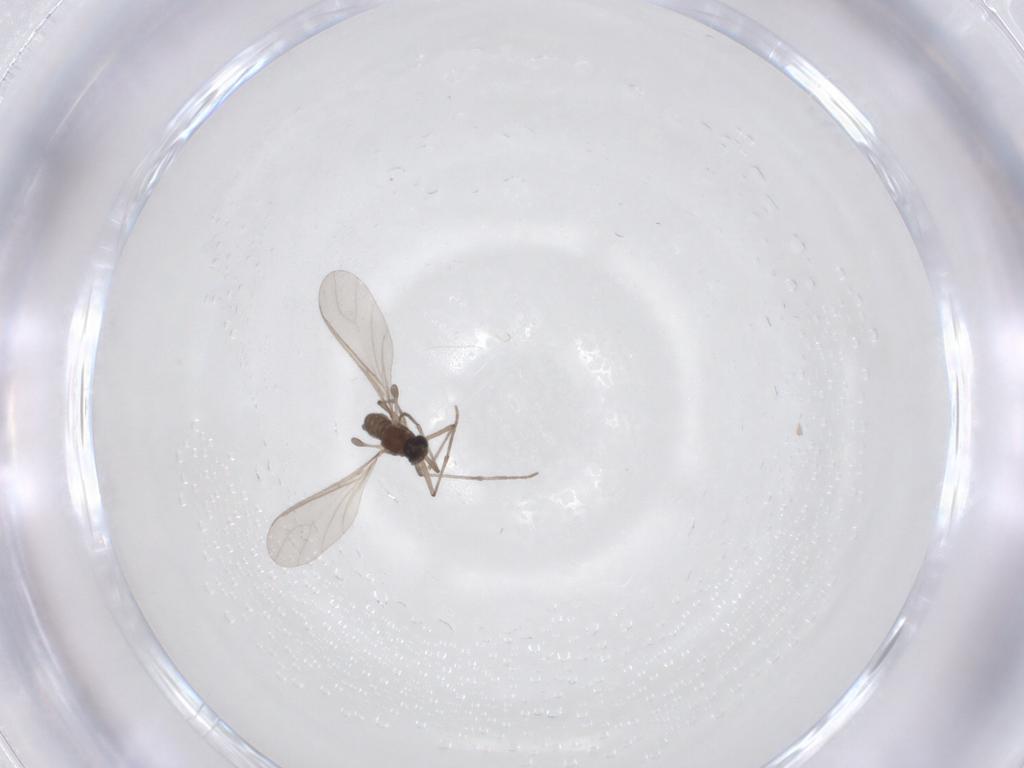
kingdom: Animalia
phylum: Arthropoda
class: Insecta
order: Diptera
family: Sciaridae
